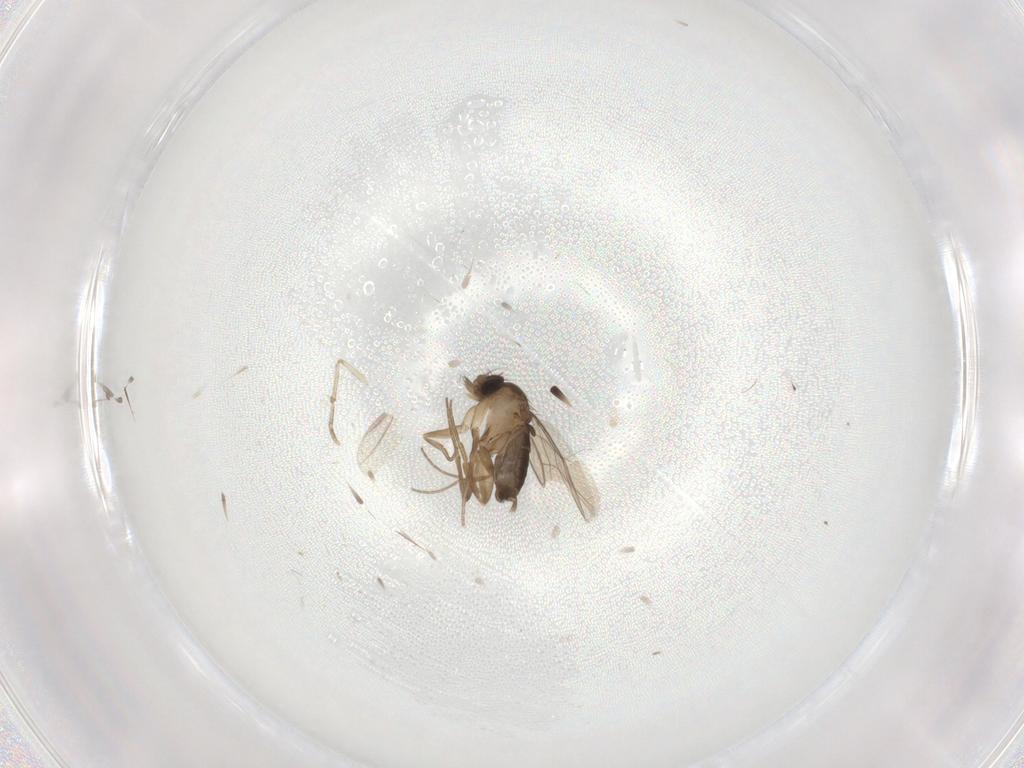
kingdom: Animalia
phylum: Arthropoda
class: Insecta
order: Diptera
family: Phoridae
